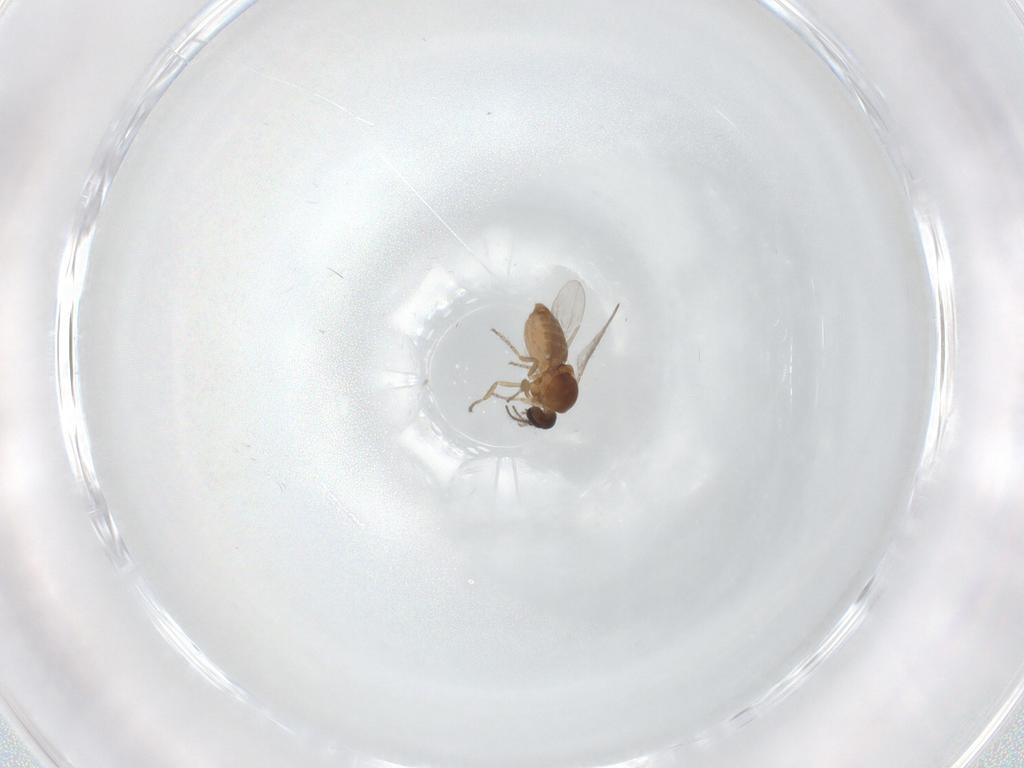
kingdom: Animalia
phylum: Arthropoda
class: Insecta
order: Diptera
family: Ceratopogonidae
